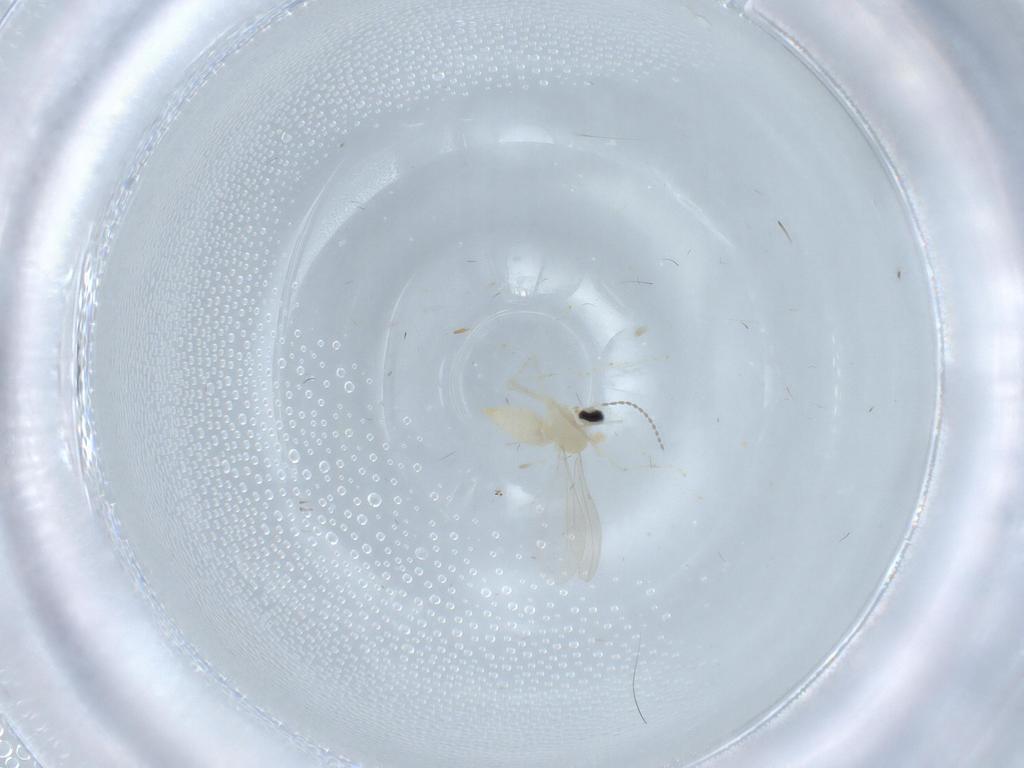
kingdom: Animalia
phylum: Arthropoda
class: Insecta
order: Diptera
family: Cecidomyiidae
